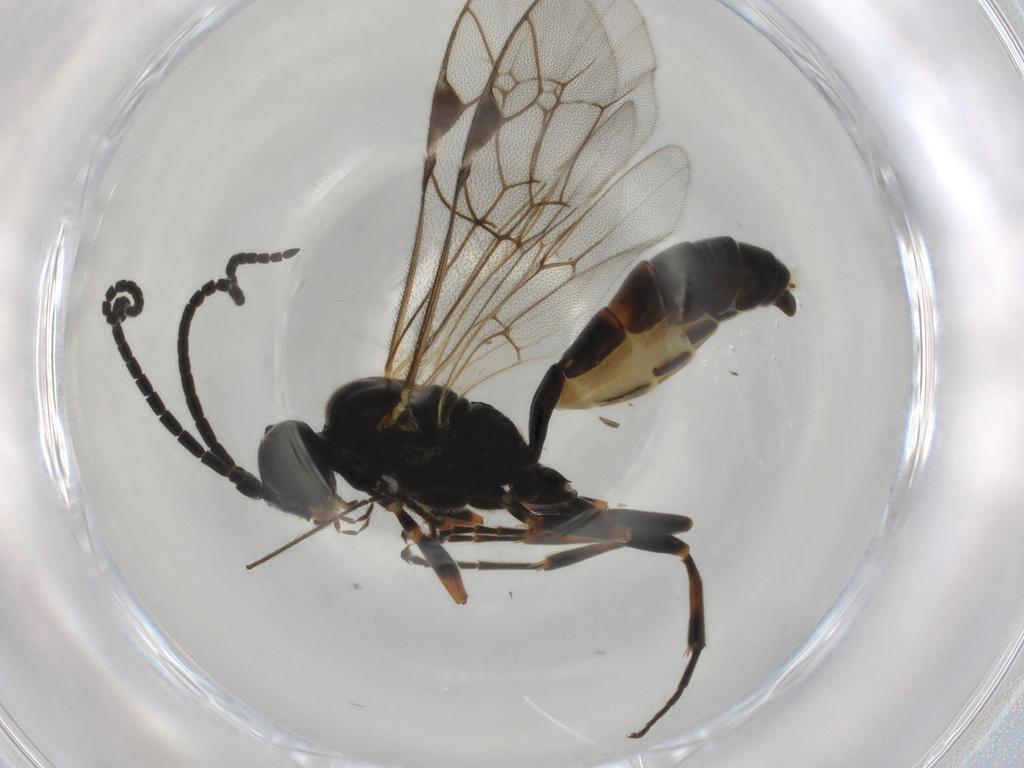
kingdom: Animalia
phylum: Arthropoda
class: Insecta
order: Hymenoptera
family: Ichneumonidae
